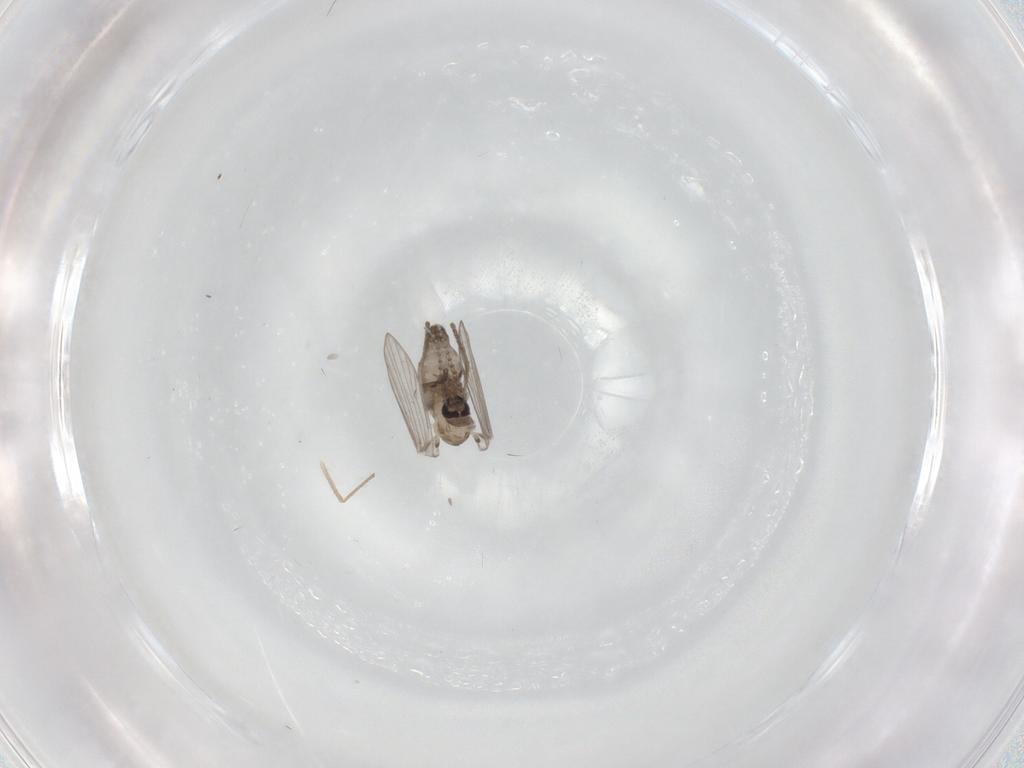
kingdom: Animalia
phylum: Arthropoda
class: Insecta
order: Diptera
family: Psychodidae
